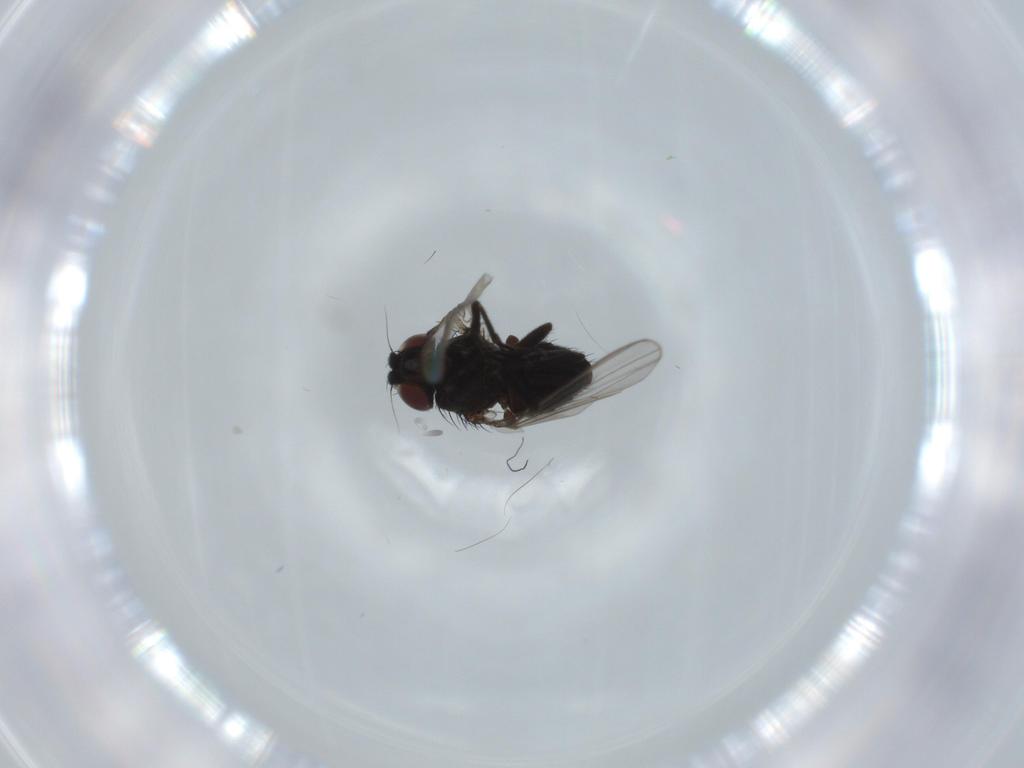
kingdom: Animalia
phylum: Arthropoda
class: Insecta
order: Diptera
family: Milichiidae
